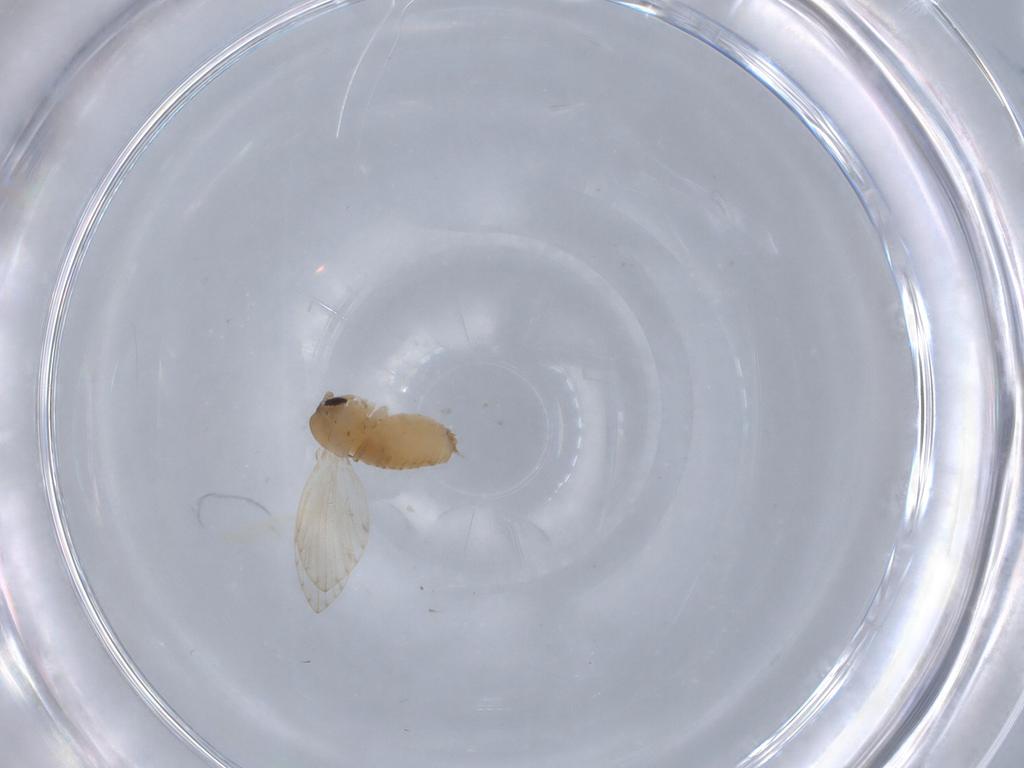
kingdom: Animalia
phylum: Arthropoda
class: Insecta
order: Diptera
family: Psychodidae
